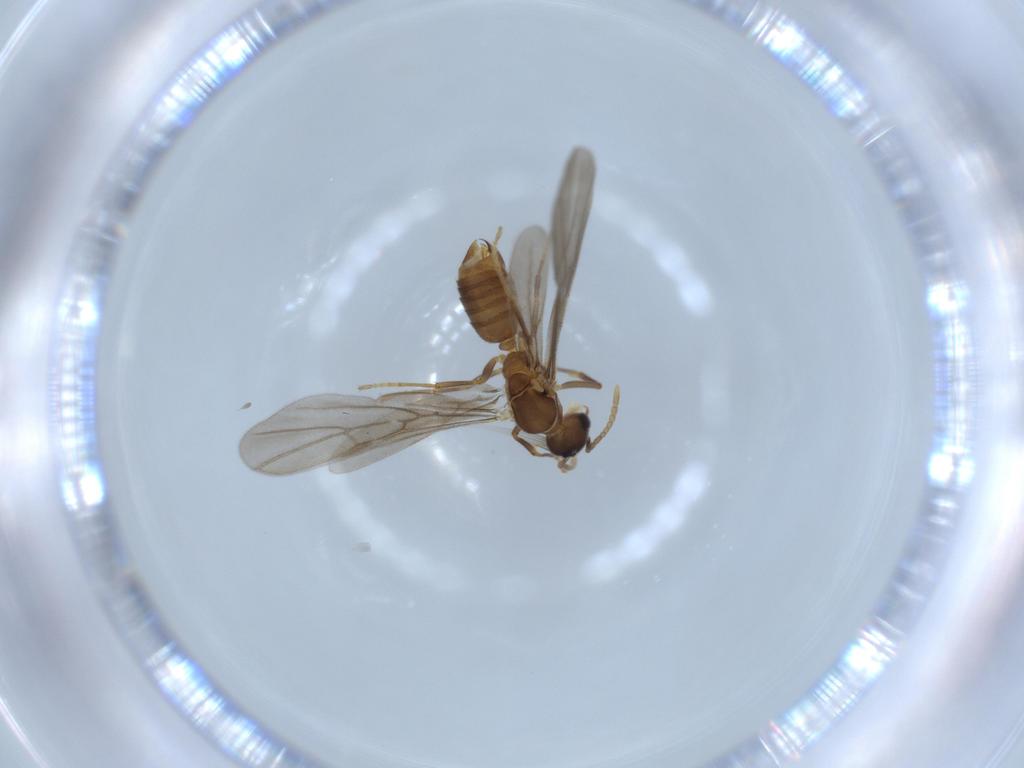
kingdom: Animalia
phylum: Arthropoda
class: Insecta
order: Hymenoptera
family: Formicidae
